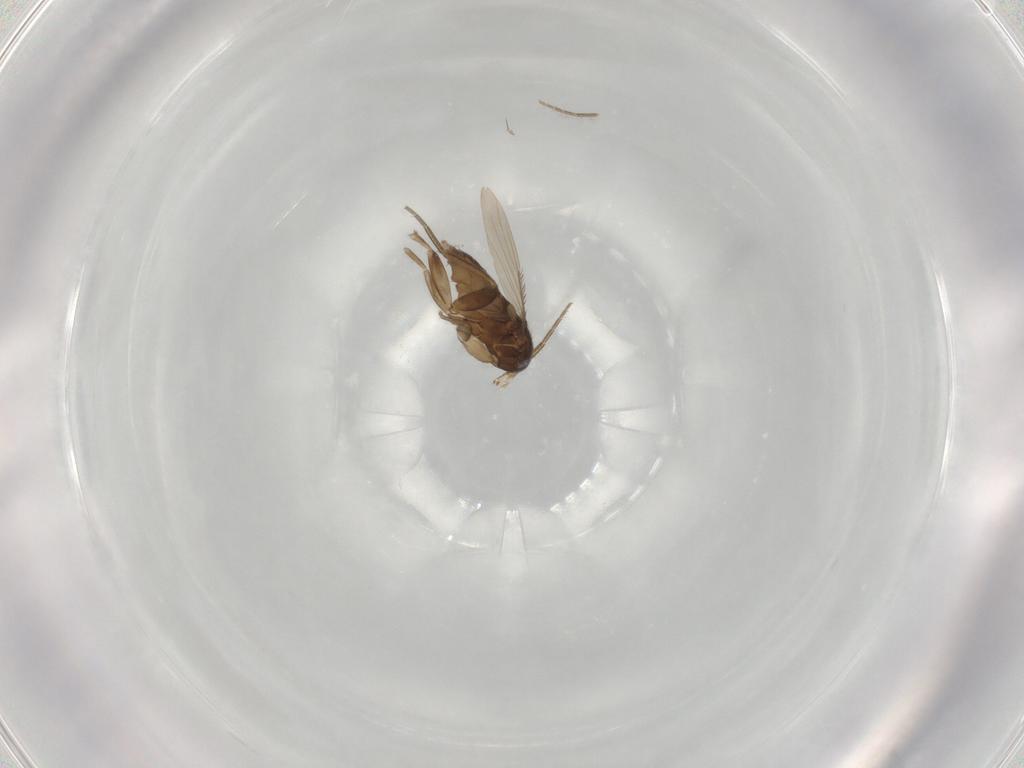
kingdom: Animalia
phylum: Arthropoda
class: Insecta
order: Diptera
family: Phoridae
